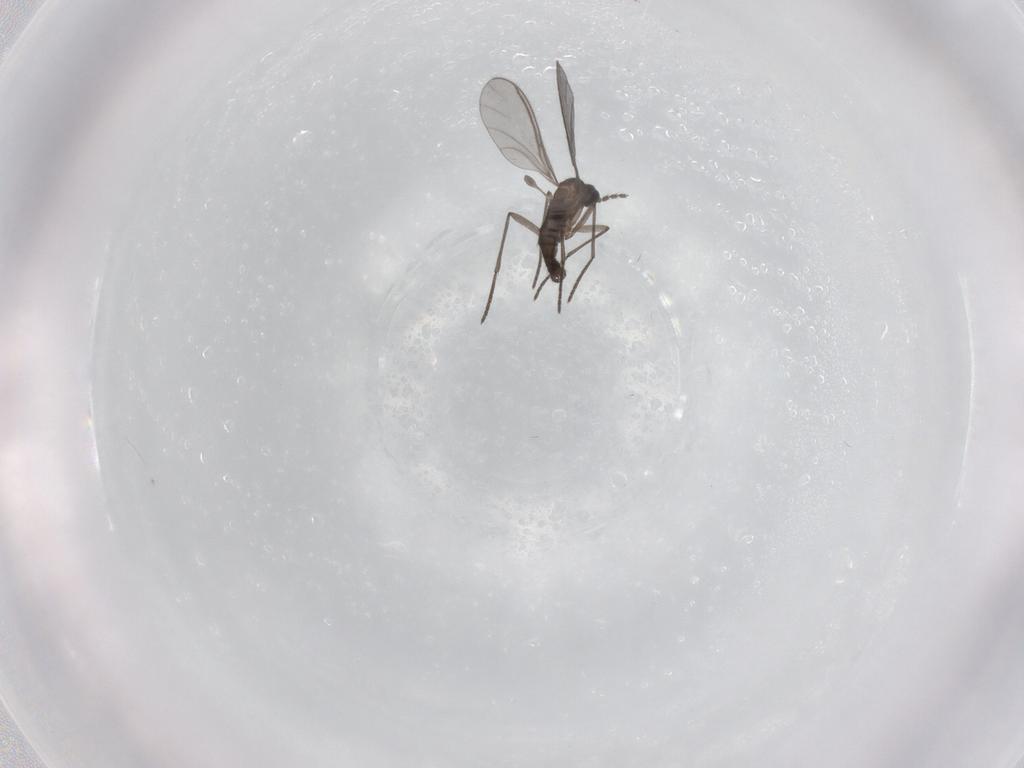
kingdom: Animalia
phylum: Arthropoda
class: Insecta
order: Diptera
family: Sciaridae
